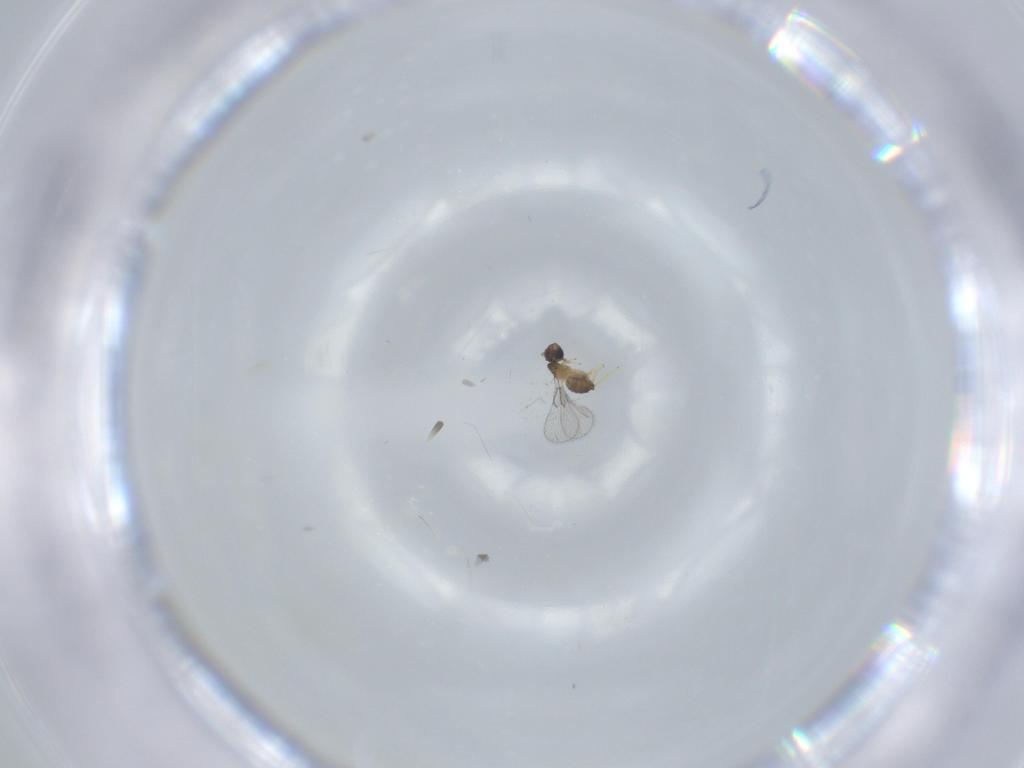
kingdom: Animalia
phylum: Arthropoda
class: Insecta
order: Hymenoptera
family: Trichogrammatidae
